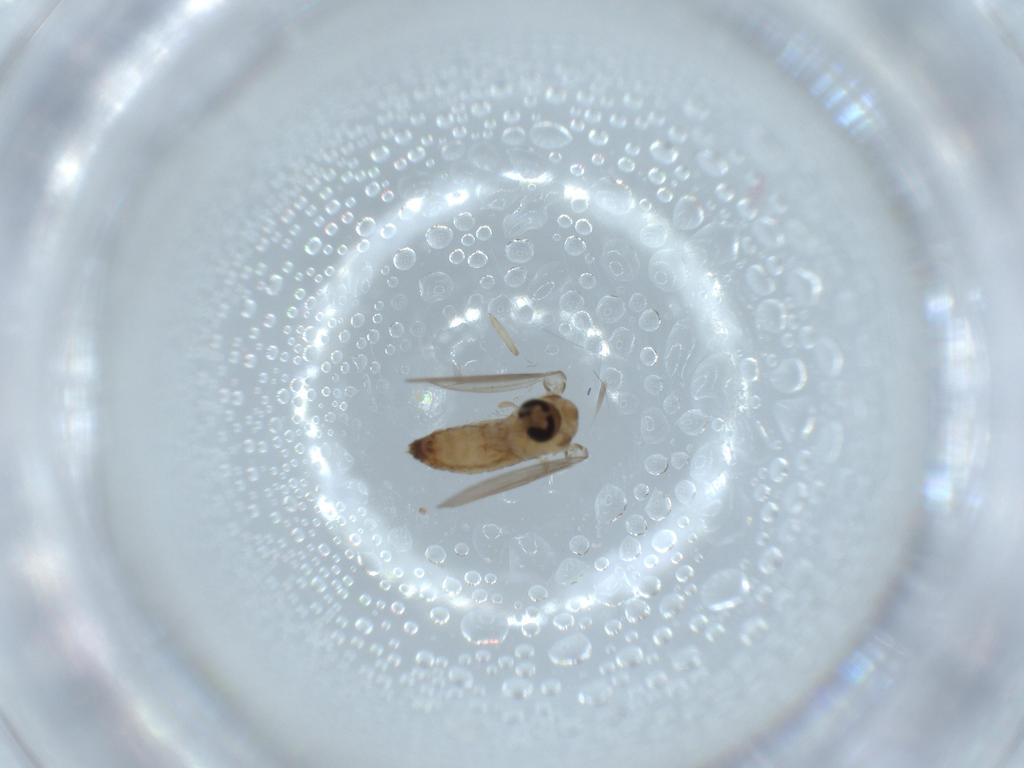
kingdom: Animalia
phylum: Arthropoda
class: Insecta
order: Diptera
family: Psychodidae
